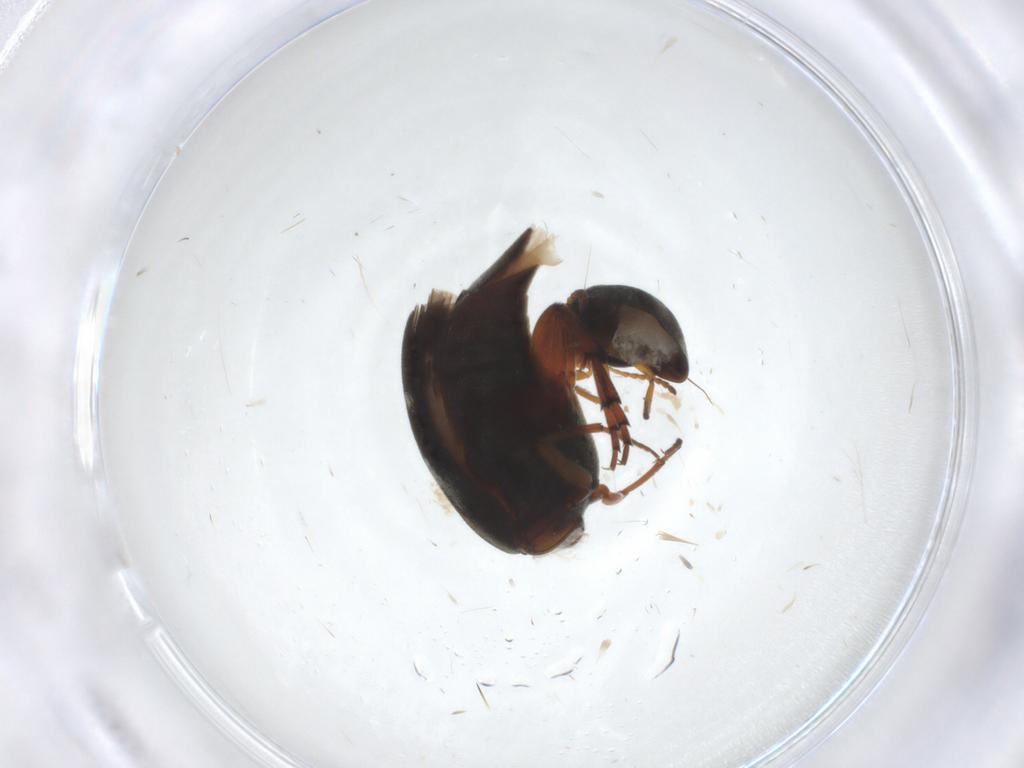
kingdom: Animalia
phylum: Arthropoda
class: Insecta
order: Coleoptera
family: Mordellidae
